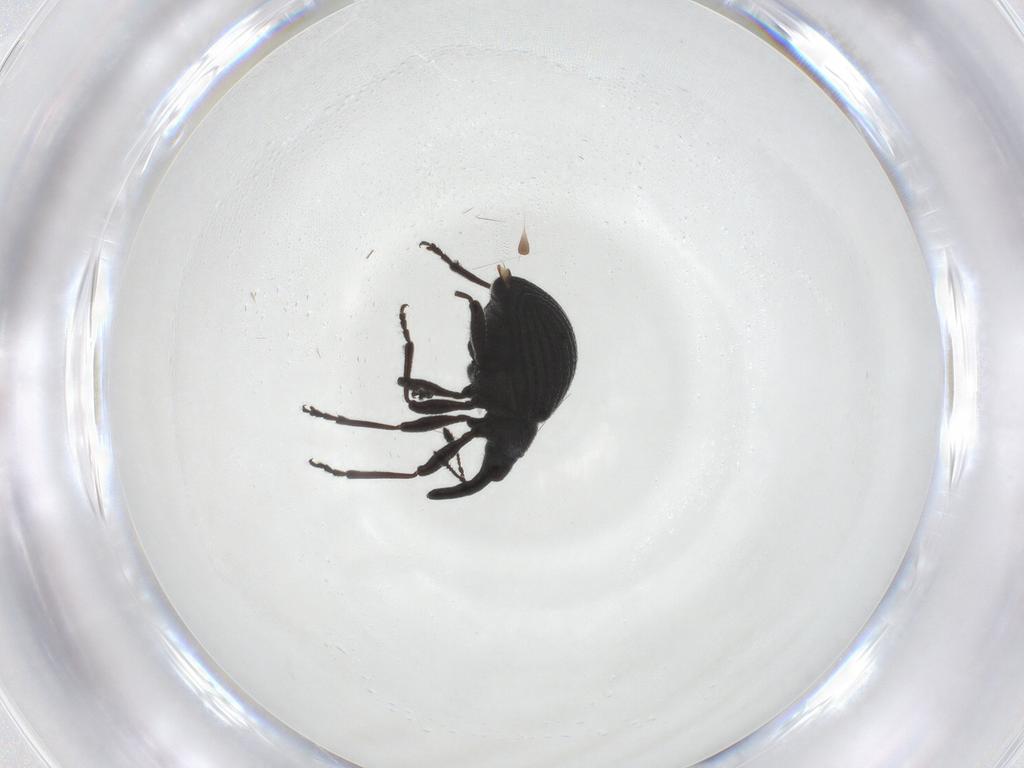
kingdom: Animalia
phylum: Arthropoda
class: Insecta
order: Coleoptera
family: Brentidae
